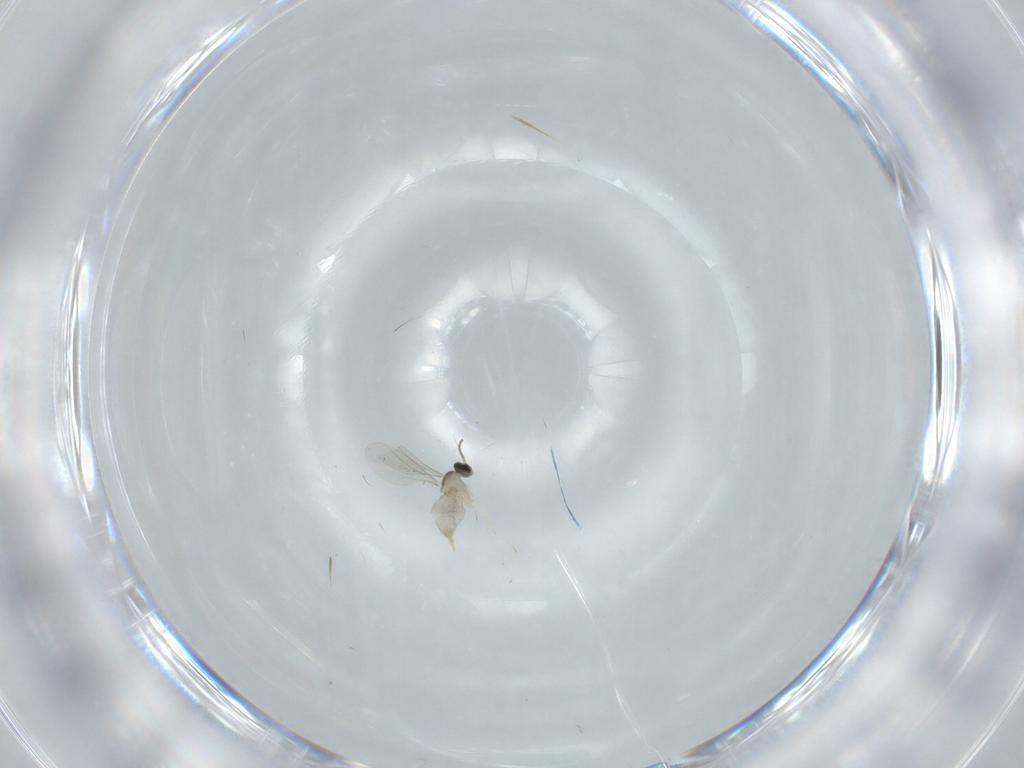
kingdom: Animalia
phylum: Arthropoda
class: Insecta
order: Diptera
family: Cecidomyiidae
